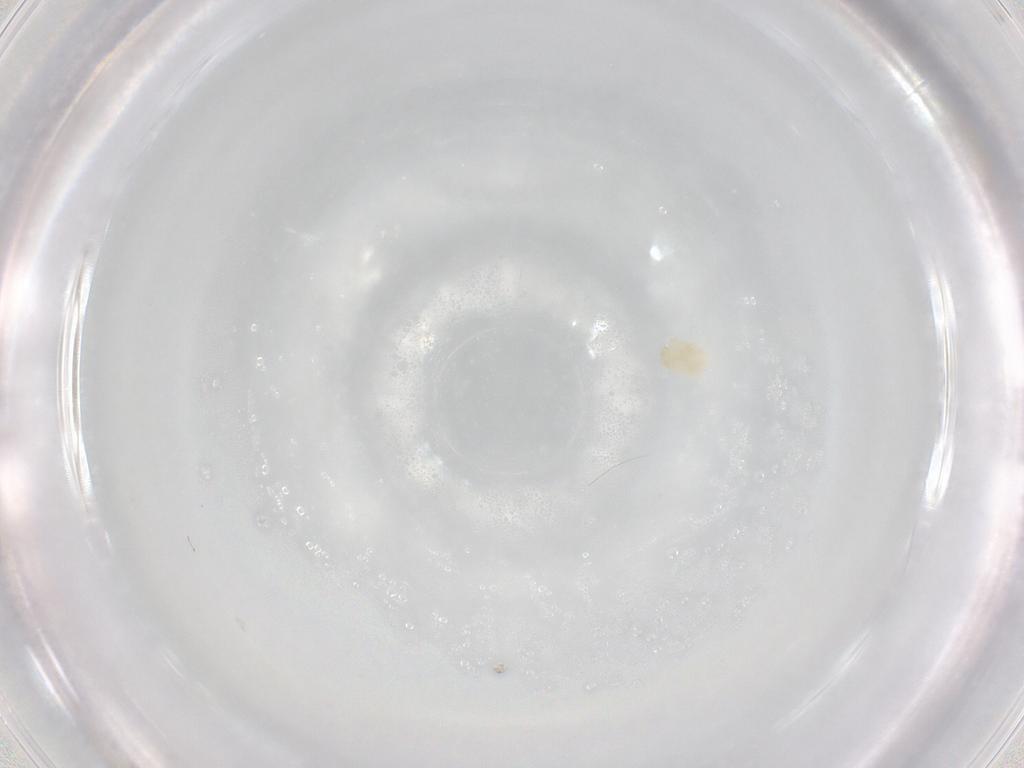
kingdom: Animalia
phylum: Arthropoda
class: Arachnida
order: Trombidiformes
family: Eupodidae
